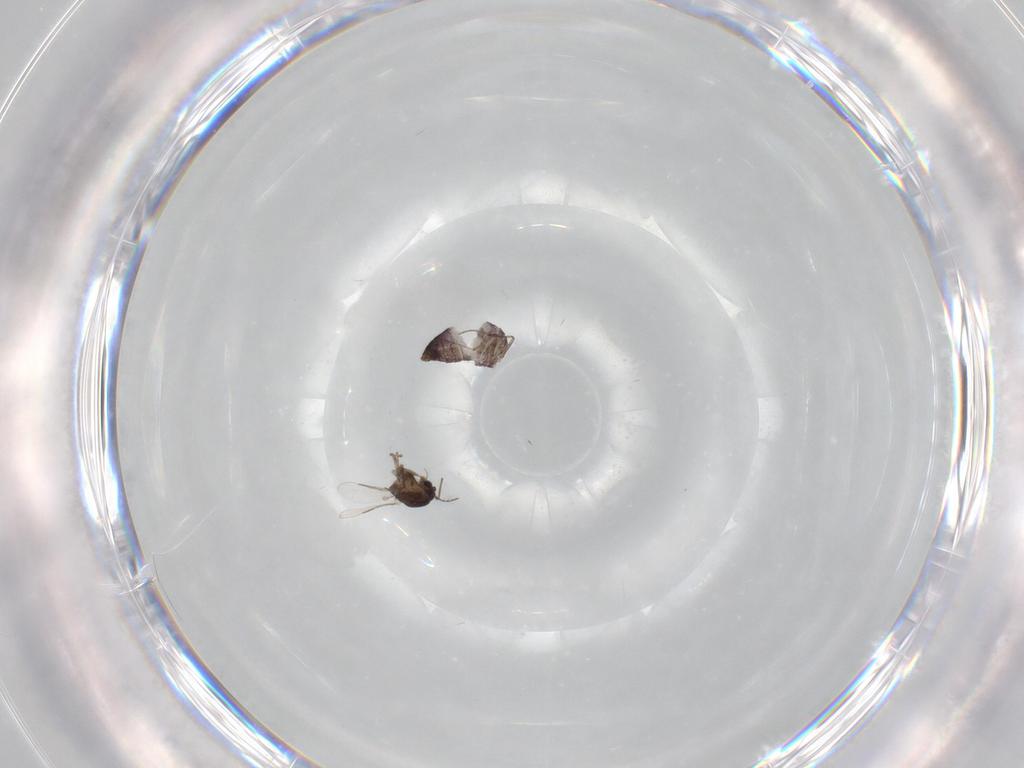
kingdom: Animalia
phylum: Arthropoda
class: Insecta
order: Diptera
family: Chironomidae
